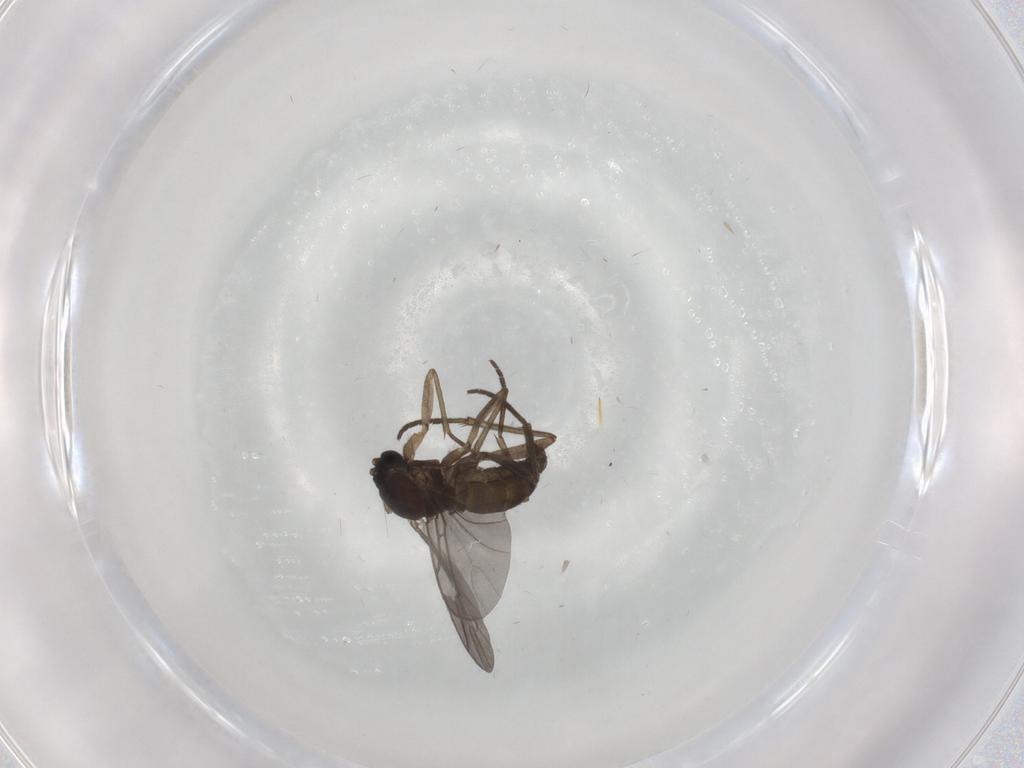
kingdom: Animalia
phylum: Arthropoda
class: Insecta
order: Diptera
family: Sciaridae
